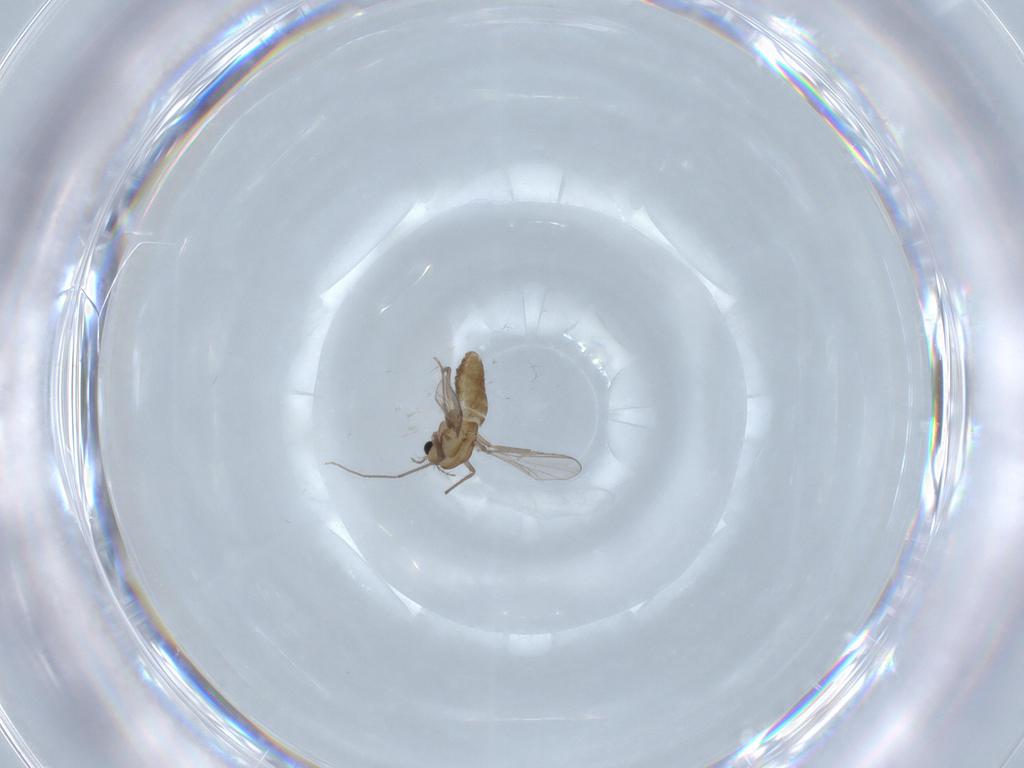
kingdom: Animalia
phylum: Arthropoda
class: Insecta
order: Diptera
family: Chironomidae
